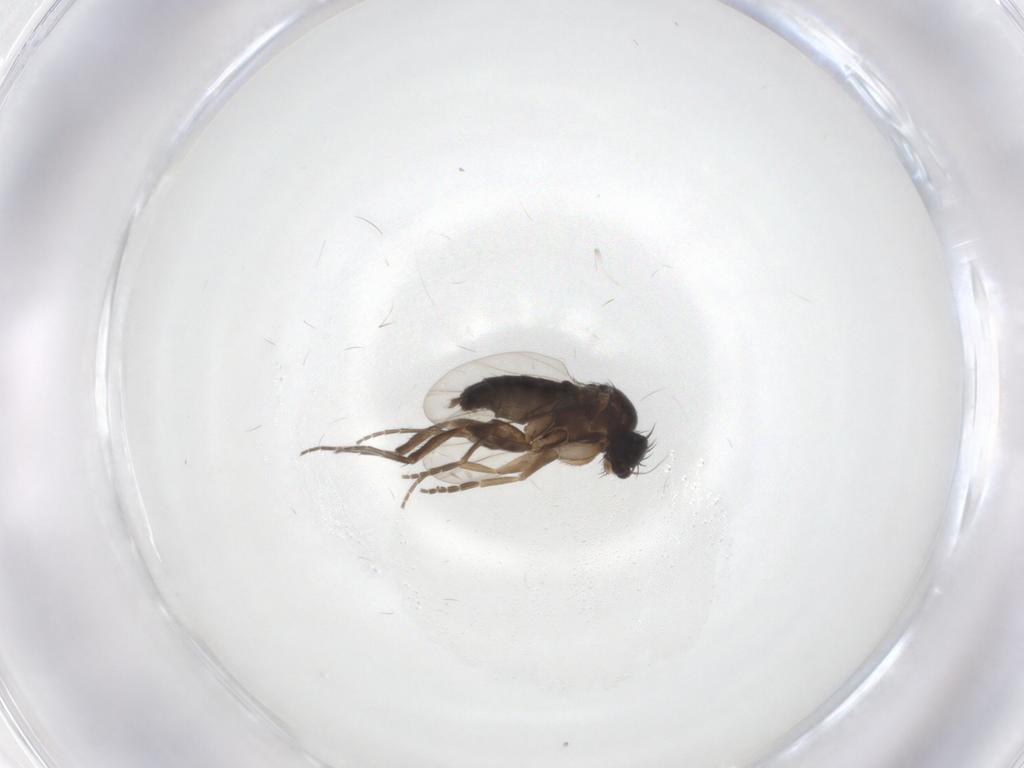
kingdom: Animalia
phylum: Arthropoda
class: Insecta
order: Diptera
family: Phoridae
